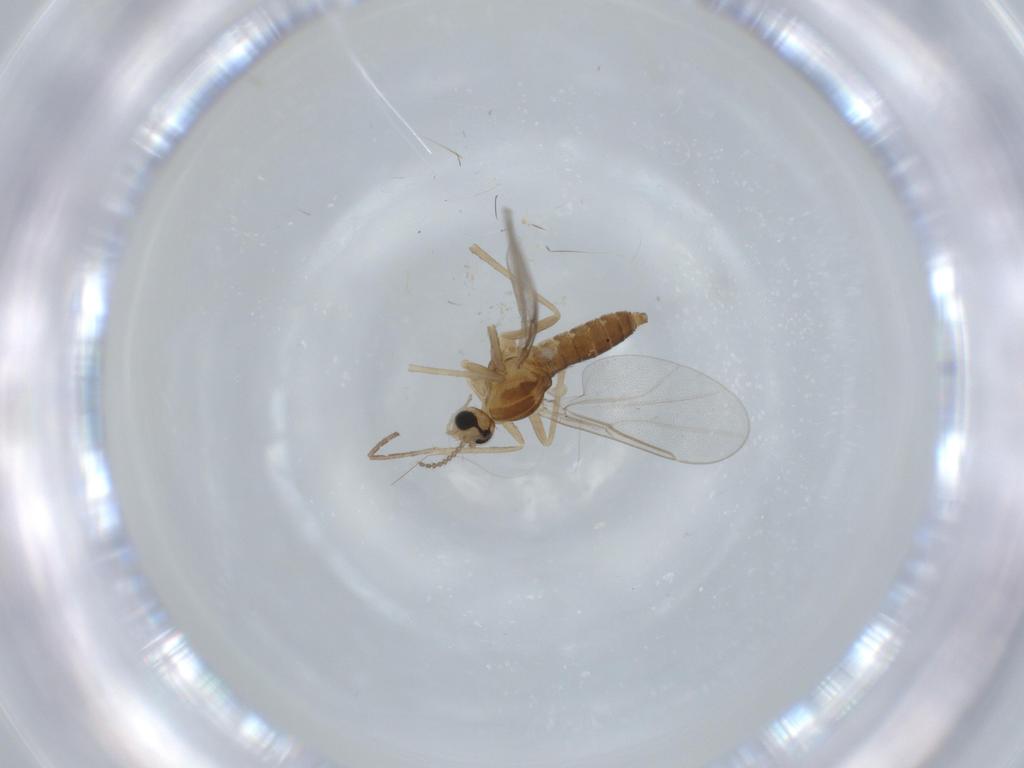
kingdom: Animalia
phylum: Arthropoda
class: Insecta
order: Diptera
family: Cecidomyiidae
